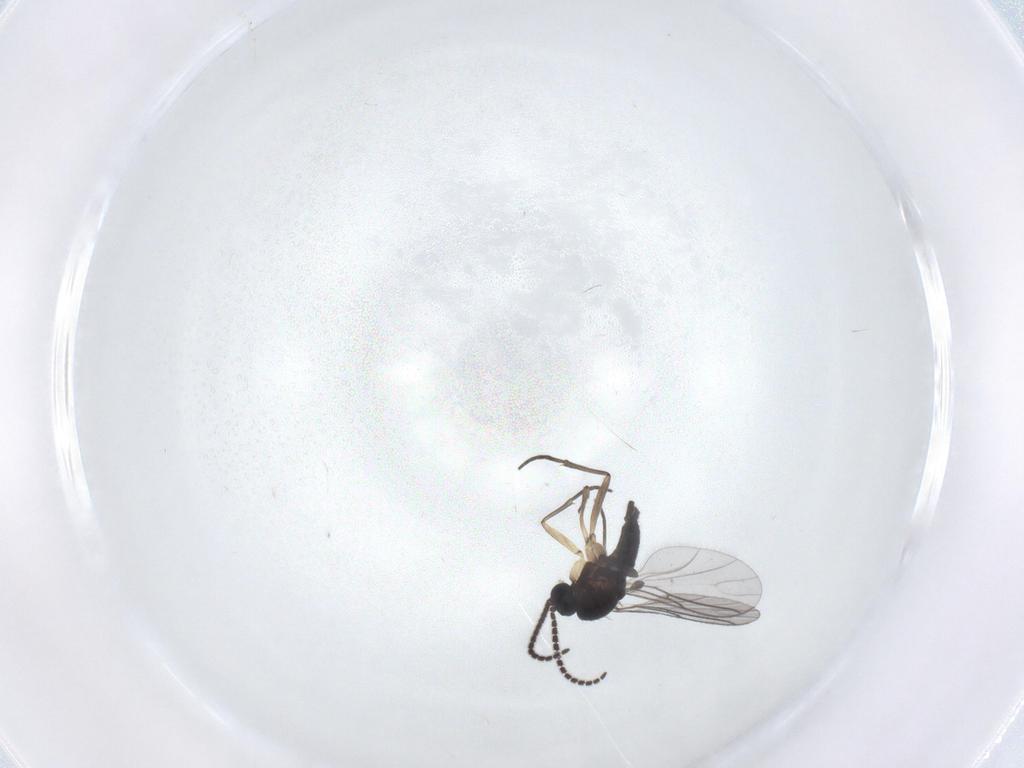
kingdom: Animalia
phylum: Arthropoda
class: Insecta
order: Diptera
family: Sciaridae
